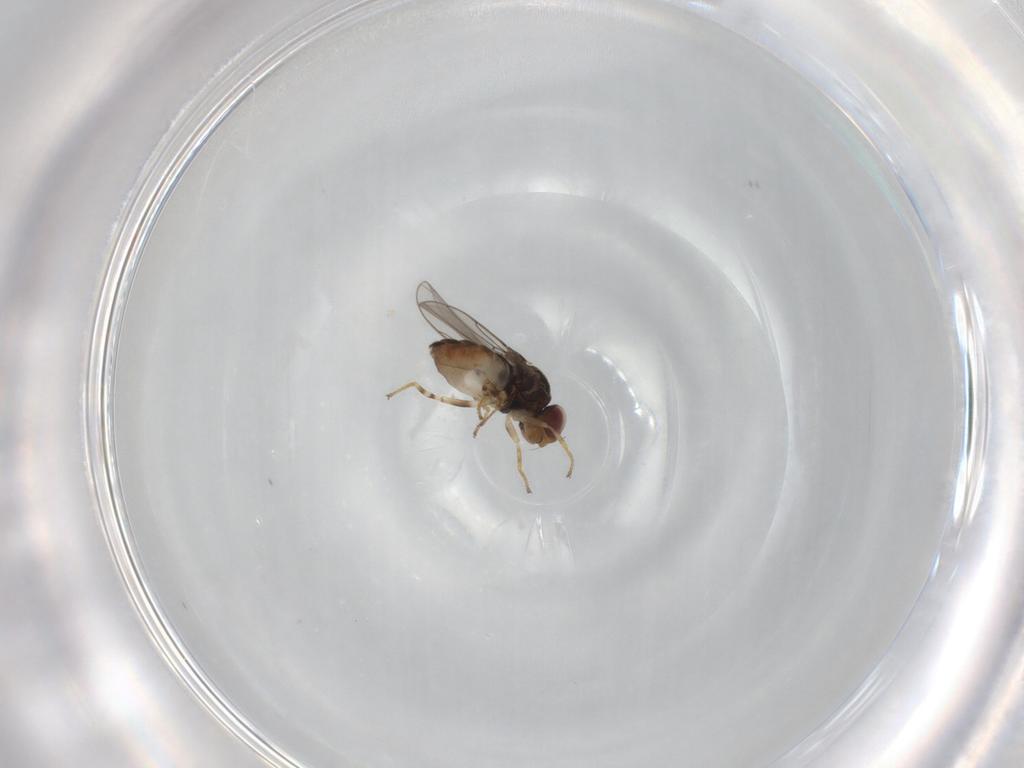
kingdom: Animalia
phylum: Arthropoda
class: Insecta
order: Diptera
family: Chloropidae
